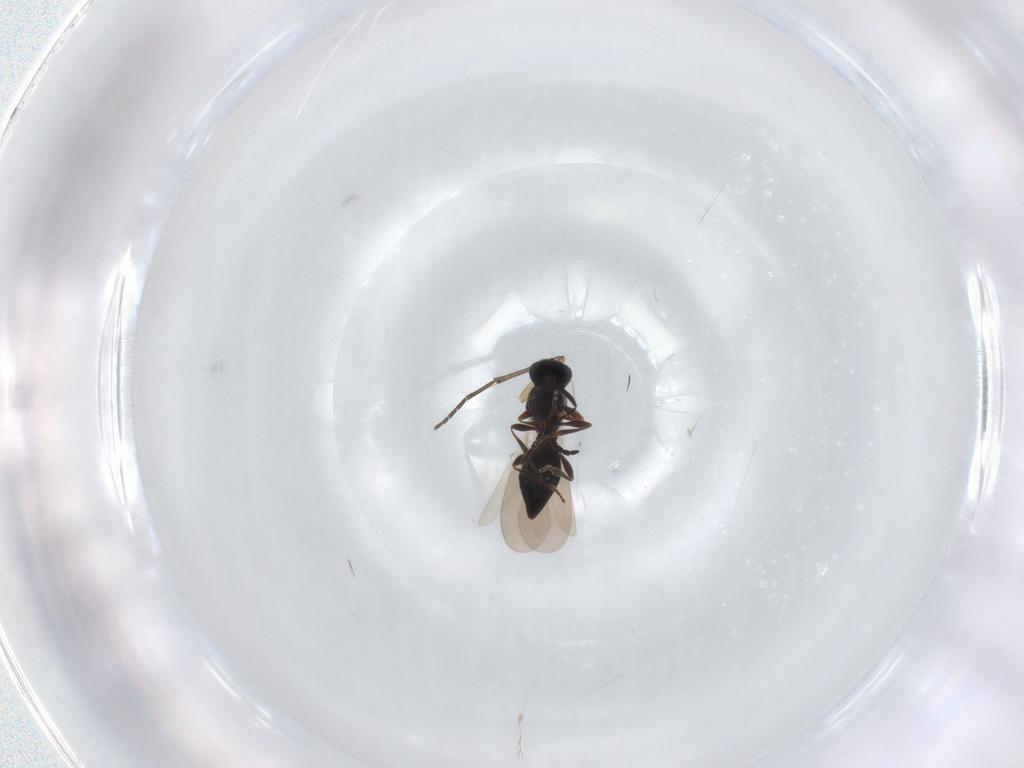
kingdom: Animalia
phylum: Arthropoda
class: Insecta
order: Hymenoptera
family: Platygastridae
